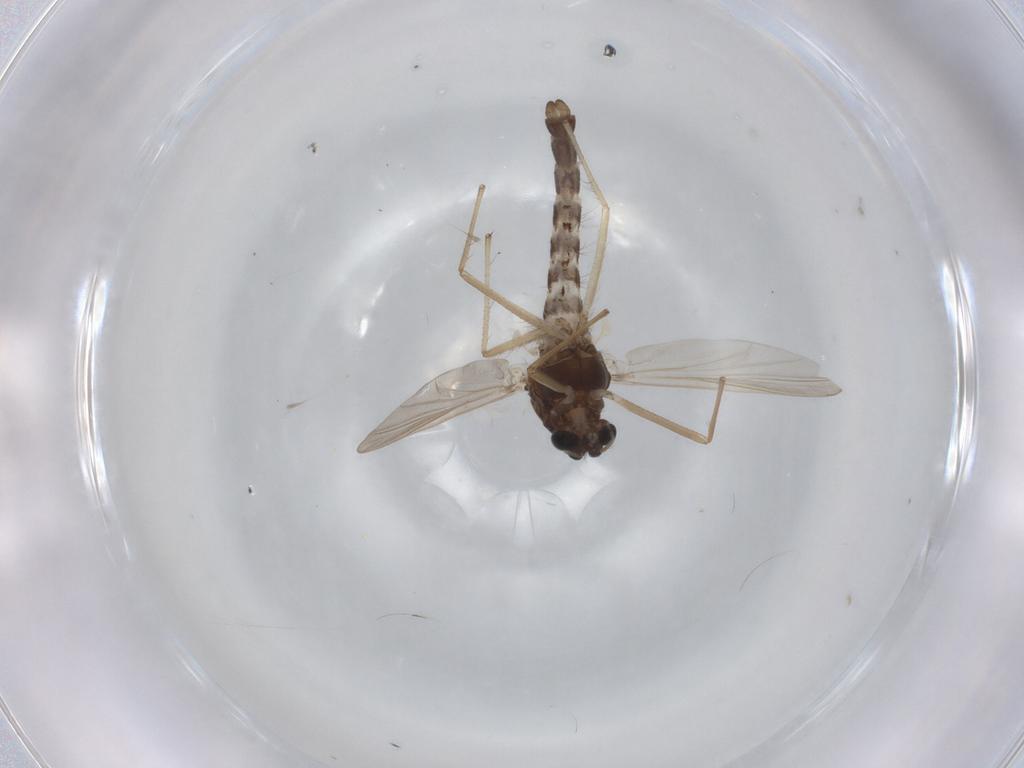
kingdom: Animalia
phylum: Arthropoda
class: Insecta
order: Diptera
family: Chironomidae
